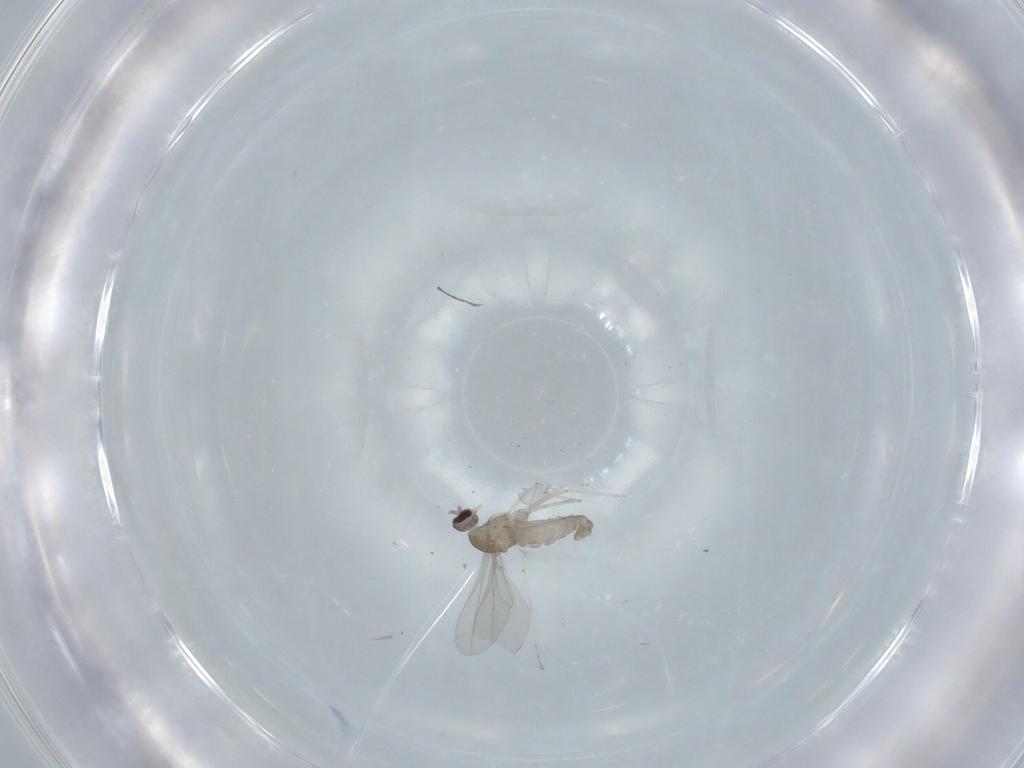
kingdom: Animalia
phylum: Arthropoda
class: Insecta
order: Diptera
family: Cecidomyiidae
